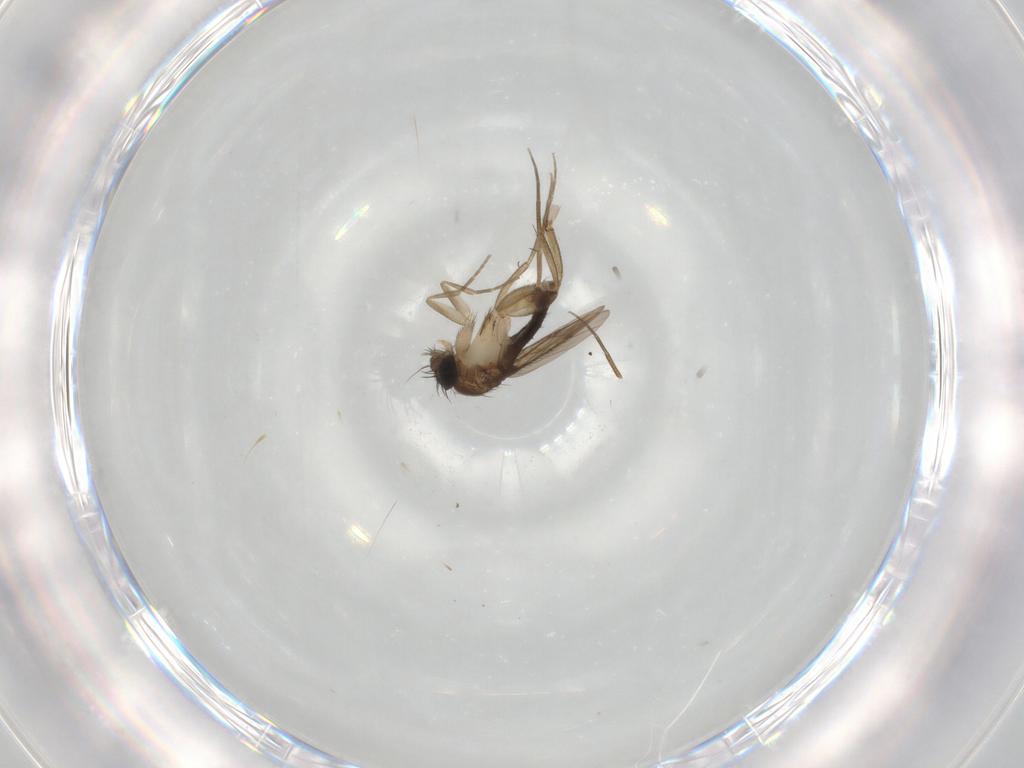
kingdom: Animalia
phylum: Arthropoda
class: Insecta
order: Diptera
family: Phoridae
